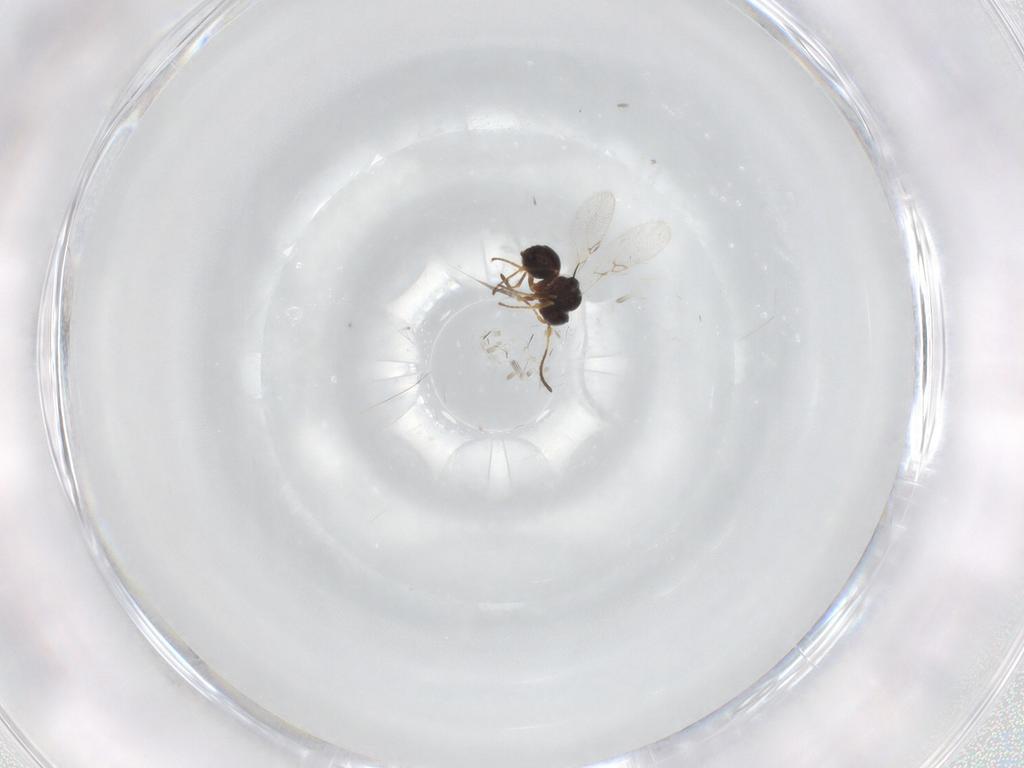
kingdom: Animalia
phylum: Arthropoda
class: Insecta
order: Hymenoptera
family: Figitidae
